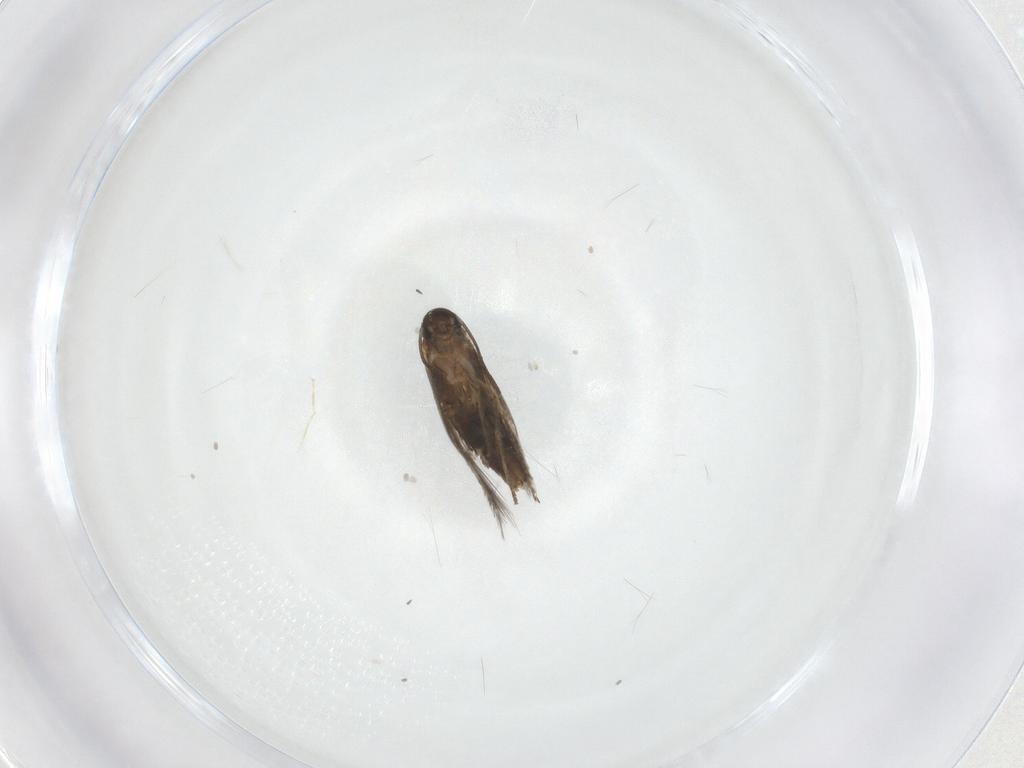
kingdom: Animalia
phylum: Arthropoda
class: Insecta
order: Lepidoptera
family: Heliozelidae
